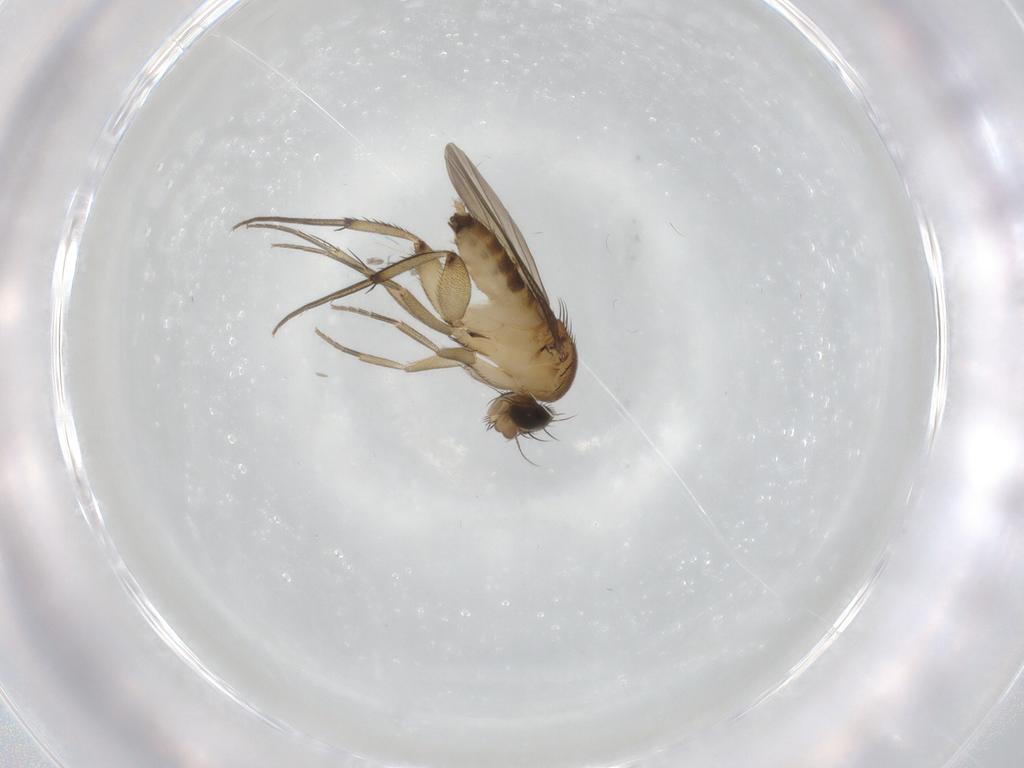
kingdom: Animalia
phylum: Arthropoda
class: Insecta
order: Diptera
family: Phoridae
